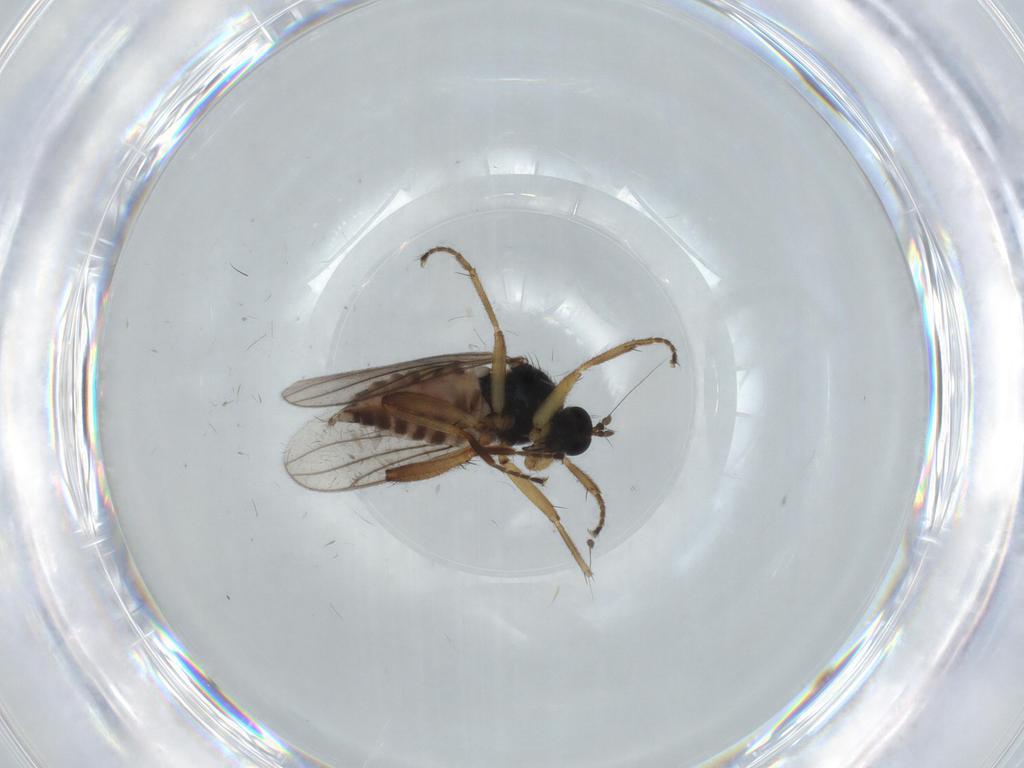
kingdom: Animalia
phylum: Arthropoda
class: Insecta
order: Diptera
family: Hybotidae
